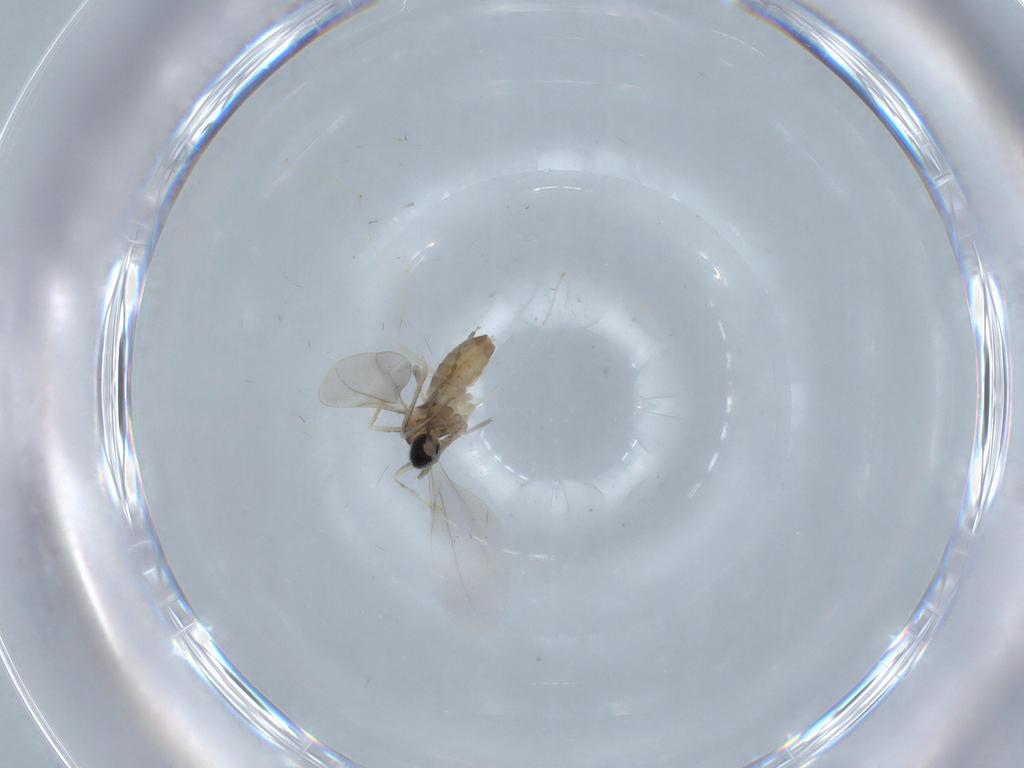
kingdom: Animalia
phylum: Arthropoda
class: Insecta
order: Diptera
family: Cecidomyiidae
